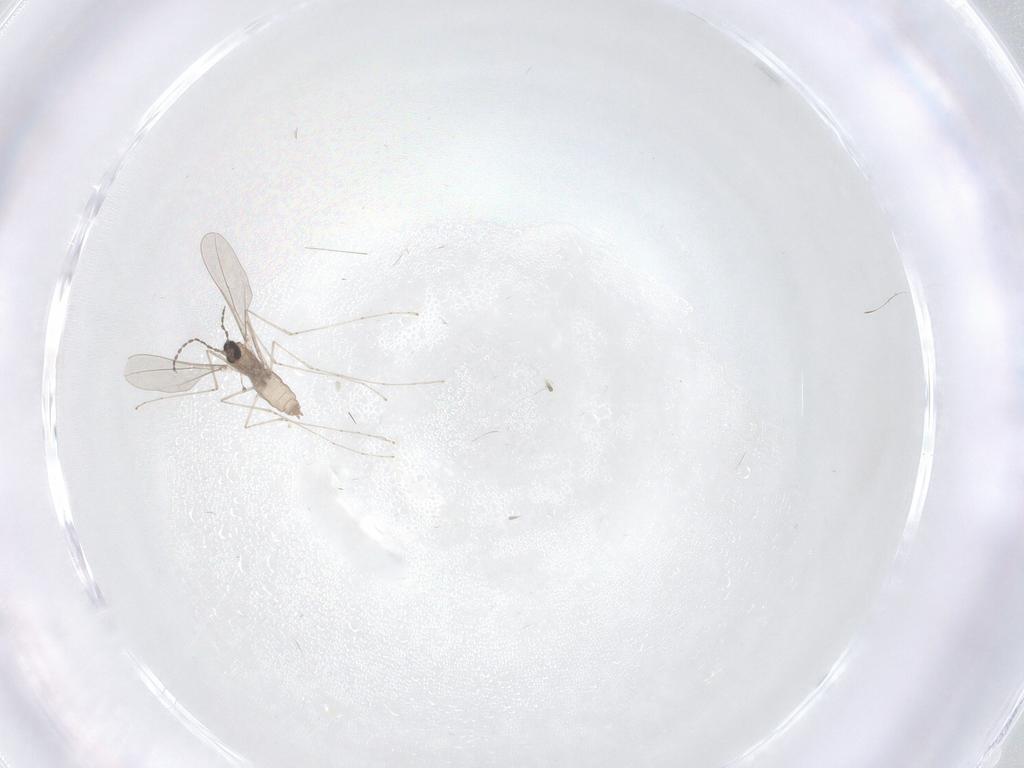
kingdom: Animalia
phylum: Arthropoda
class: Insecta
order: Diptera
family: Cecidomyiidae
